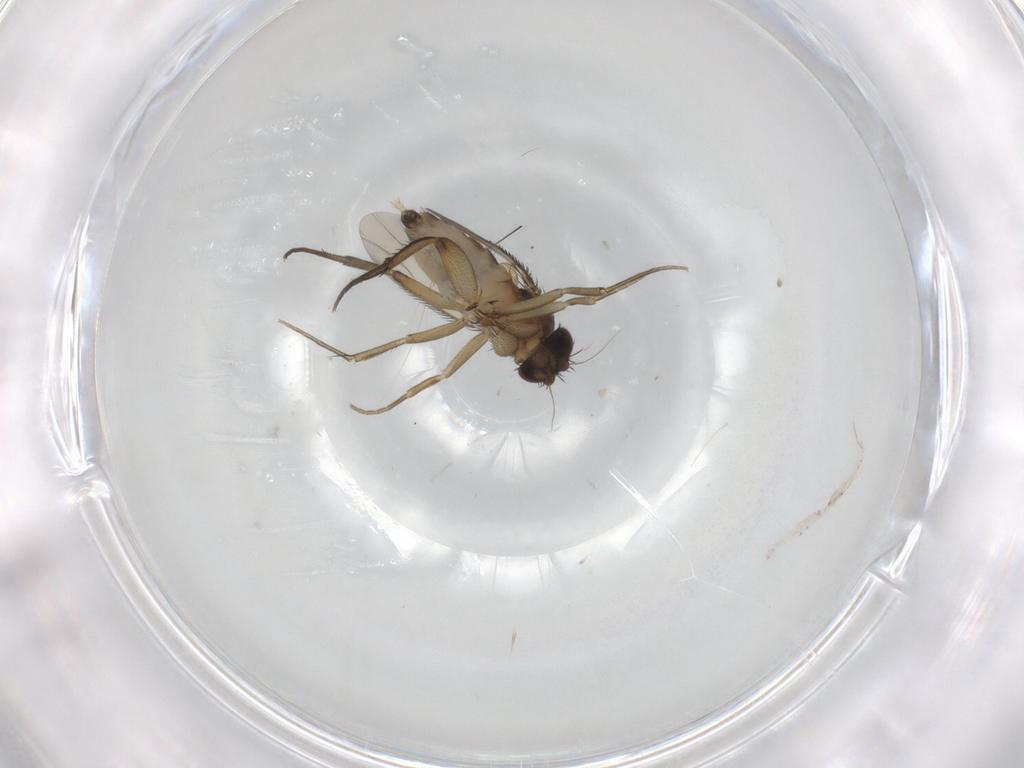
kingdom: Animalia
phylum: Arthropoda
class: Insecta
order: Diptera
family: Phoridae
